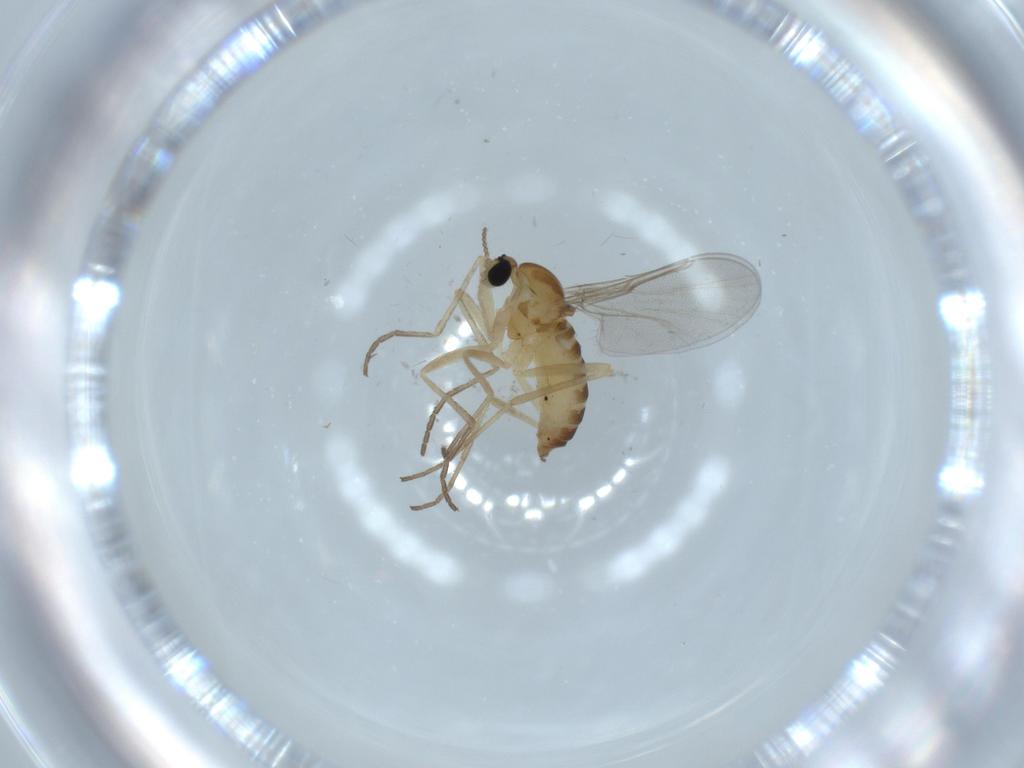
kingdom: Animalia
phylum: Arthropoda
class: Insecta
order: Diptera
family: Cecidomyiidae
